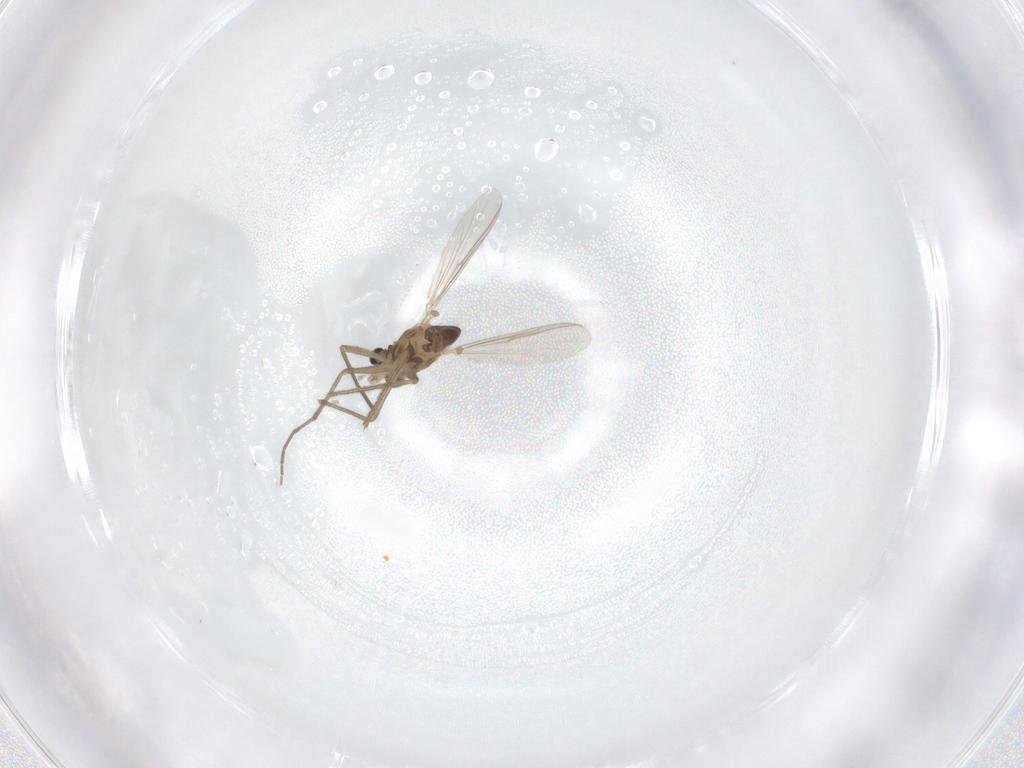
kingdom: Animalia
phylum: Arthropoda
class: Insecta
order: Diptera
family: Chironomidae
